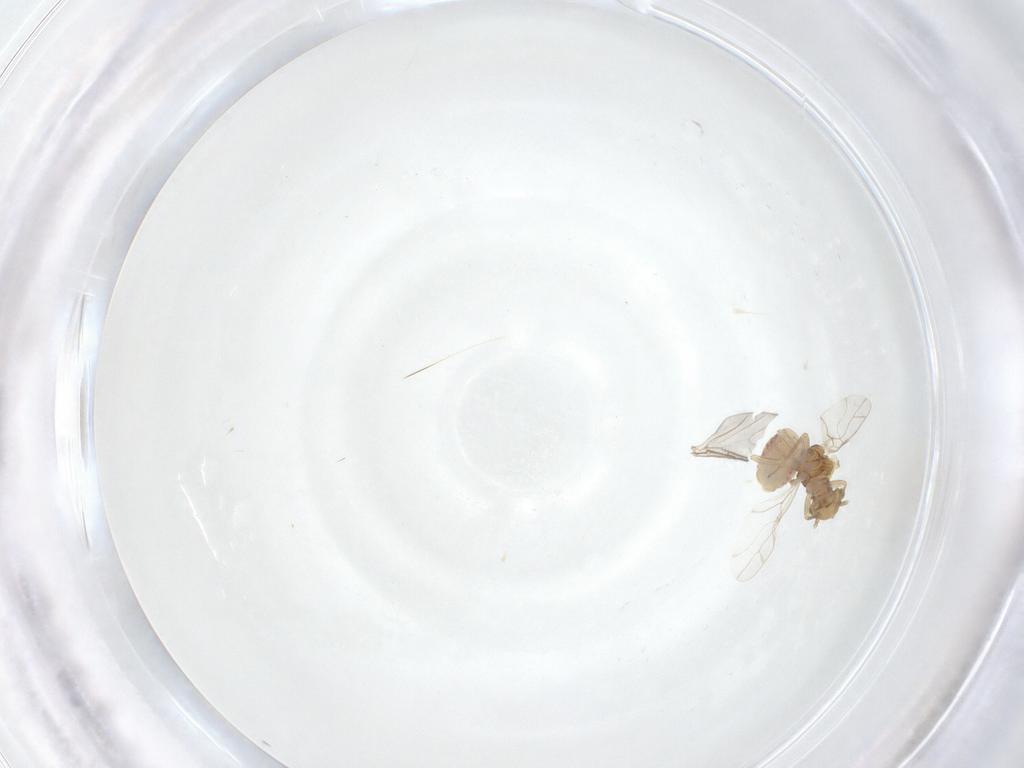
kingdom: Animalia
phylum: Arthropoda
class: Insecta
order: Psocodea
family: Lachesillidae
